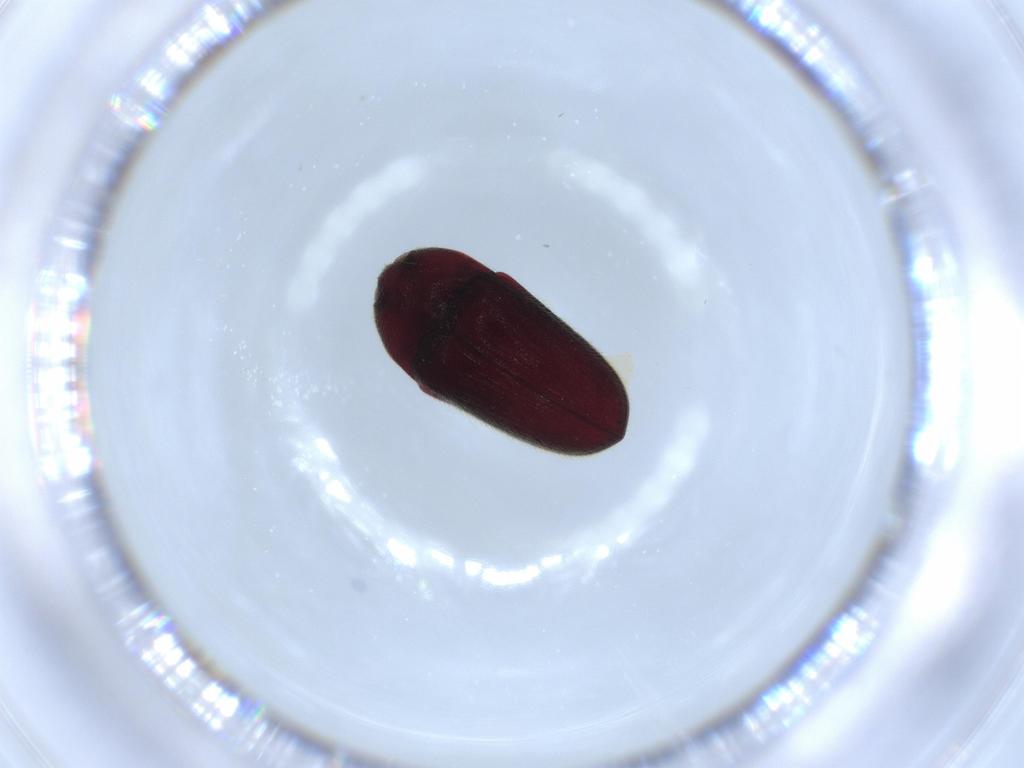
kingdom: Animalia
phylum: Arthropoda
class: Insecta
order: Coleoptera
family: Throscidae
